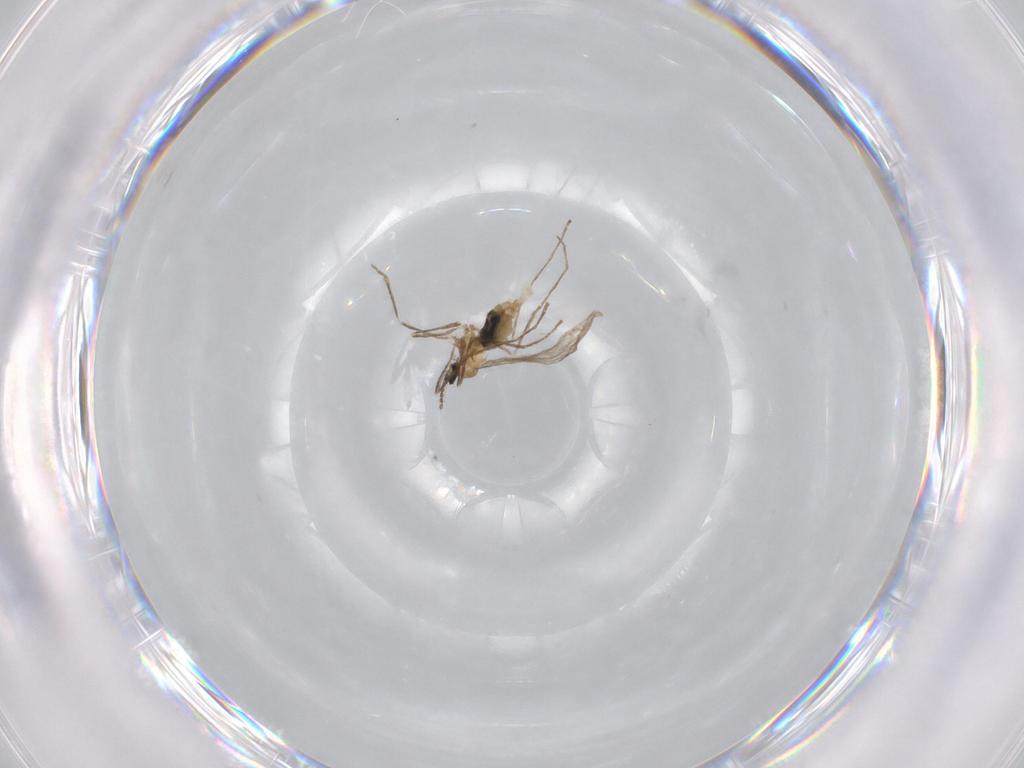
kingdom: Animalia
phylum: Arthropoda
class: Insecta
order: Diptera
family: Cecidomyiidae
